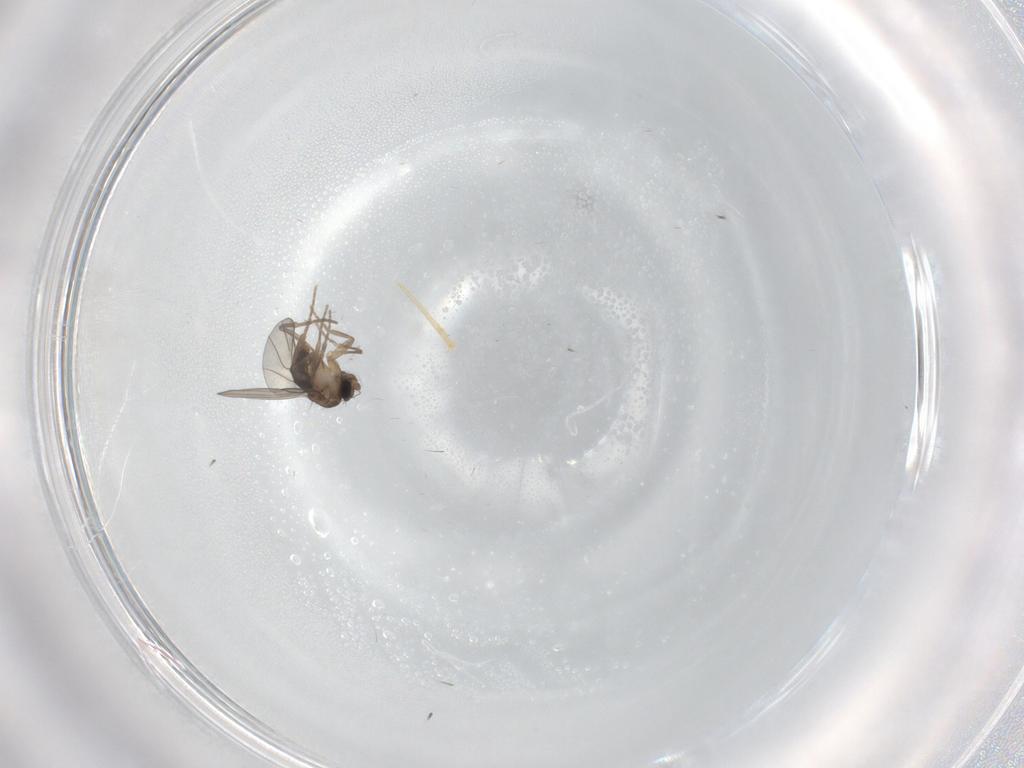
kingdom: Animalia
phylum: Arthropoda
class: Insecta
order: Diptera
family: Phoridae
